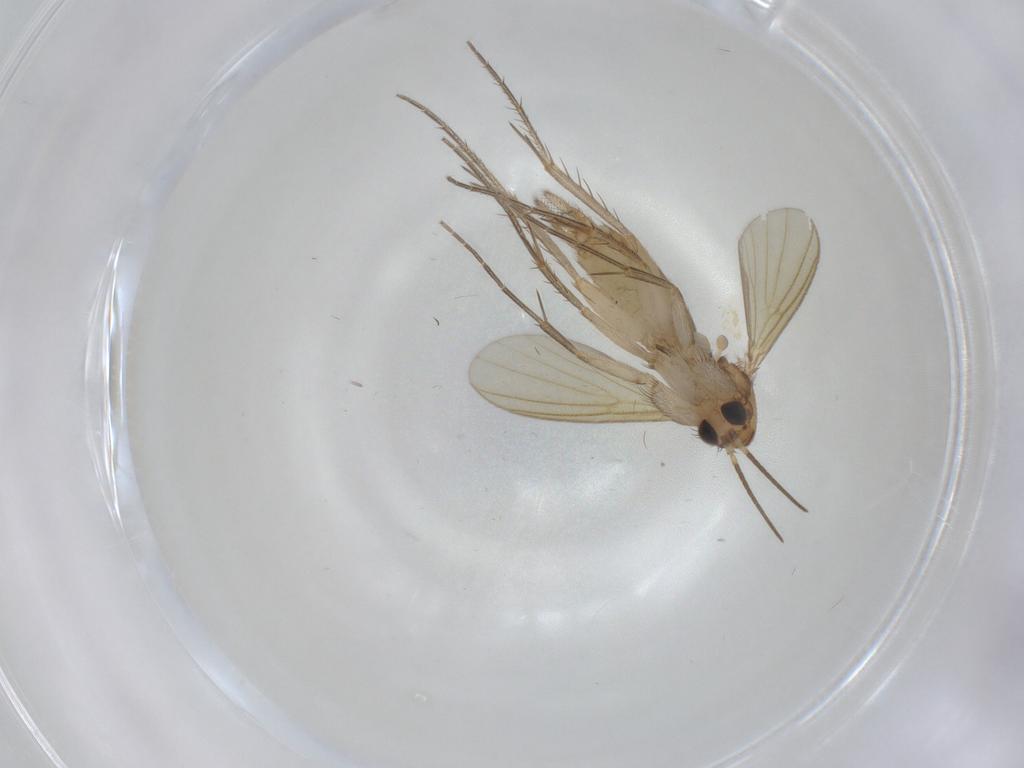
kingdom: Animalia
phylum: Arthropoda
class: Insecta
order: Diptera
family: Mycetophilidae
